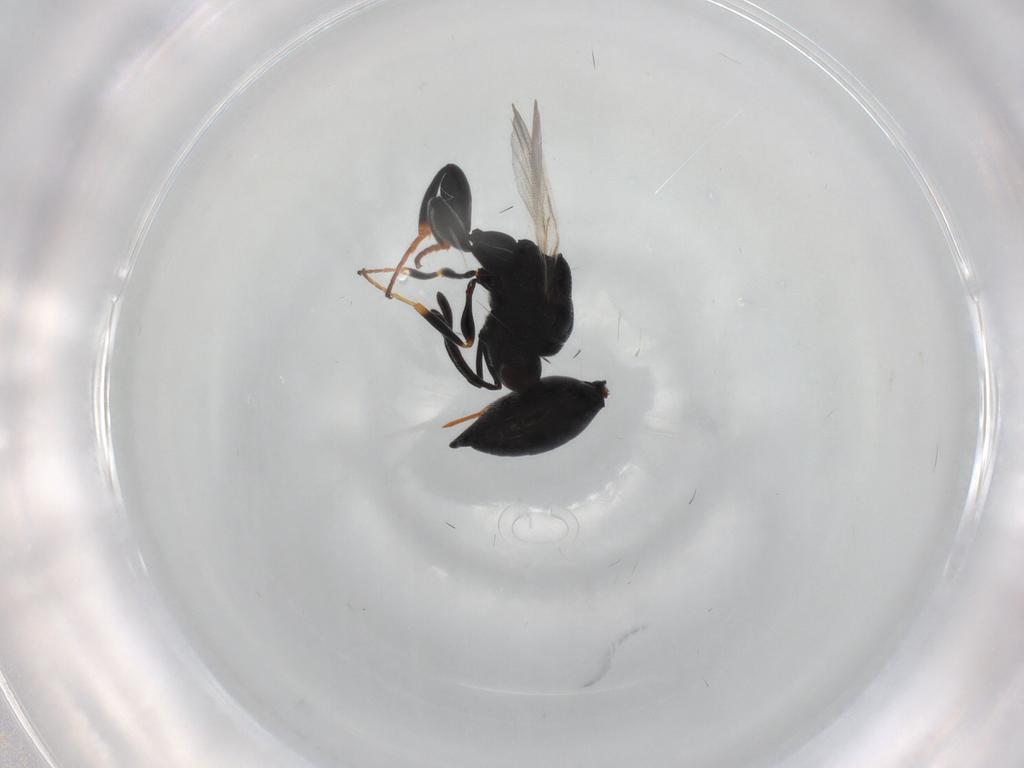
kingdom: Animalia
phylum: Arthropoda
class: Insecta
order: Hymenoptera
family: Chalcididae
